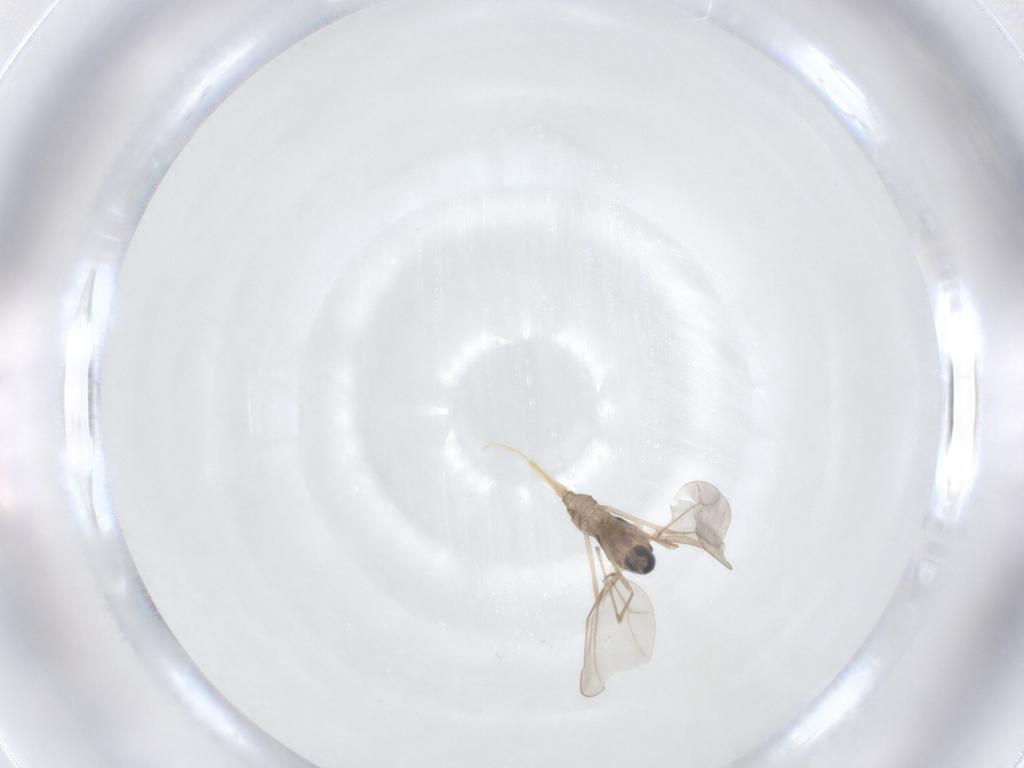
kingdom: Animalia
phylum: Arthropoda
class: Insecta
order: Diptera
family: Cecidomyiidae
